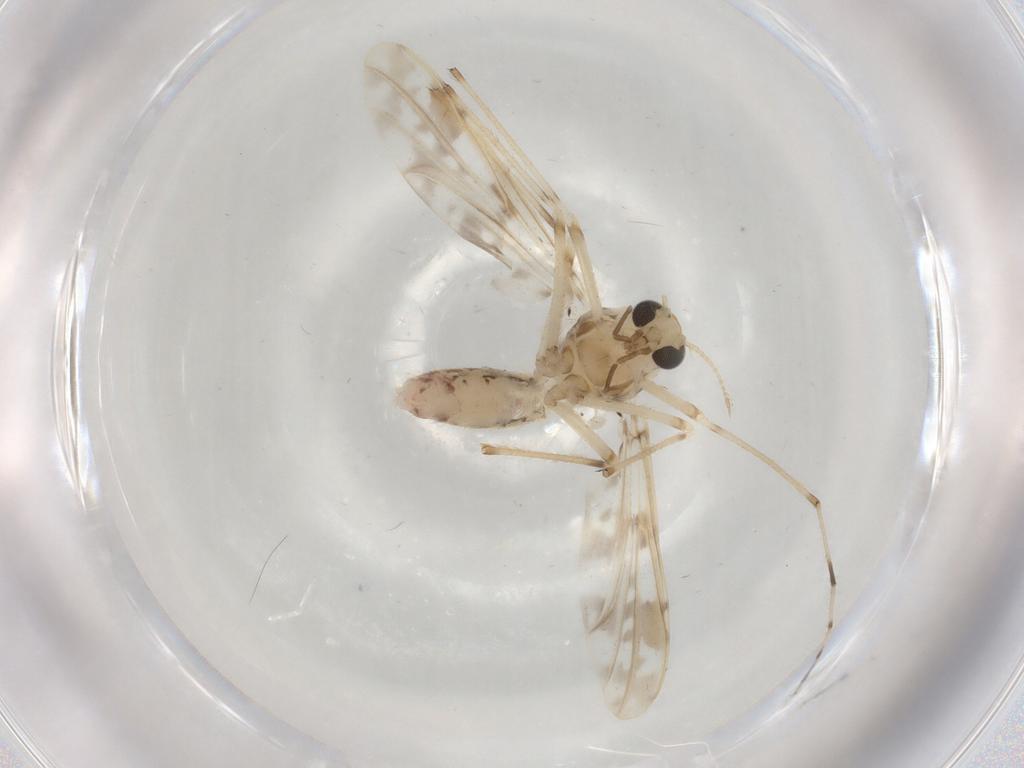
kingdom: Animalia
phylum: Arthropoda
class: Insecta
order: Diptera
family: Chironomidae
